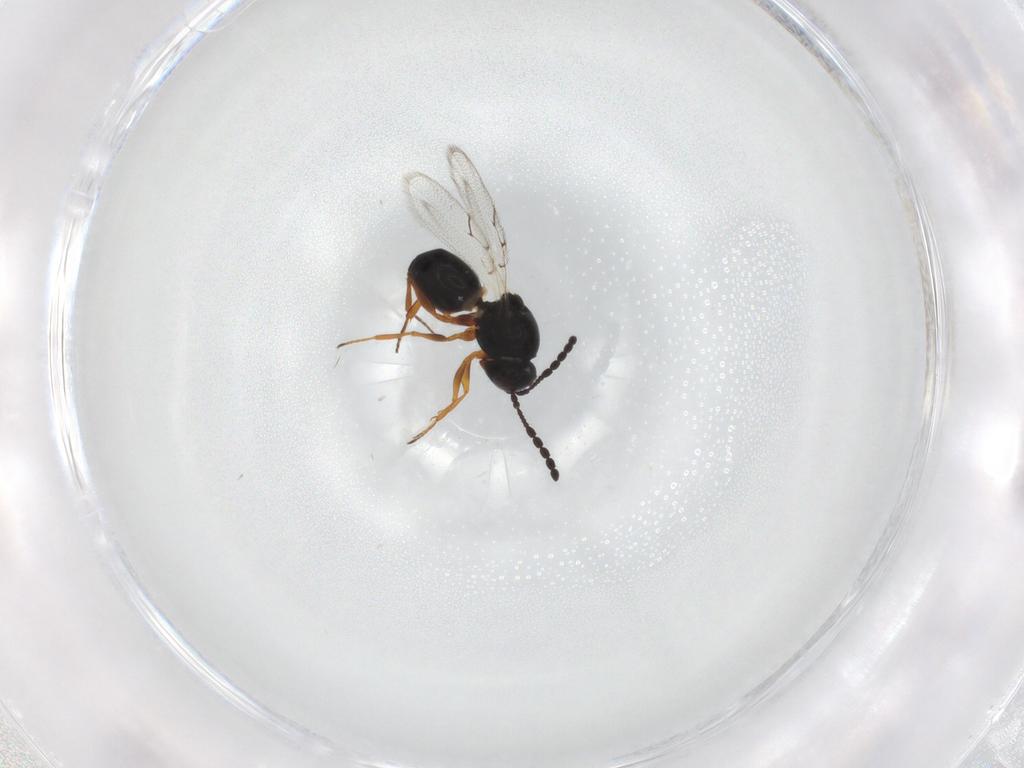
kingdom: Animalia
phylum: Arthropoda
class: Insecta
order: Hymenoptera
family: Figitidae
